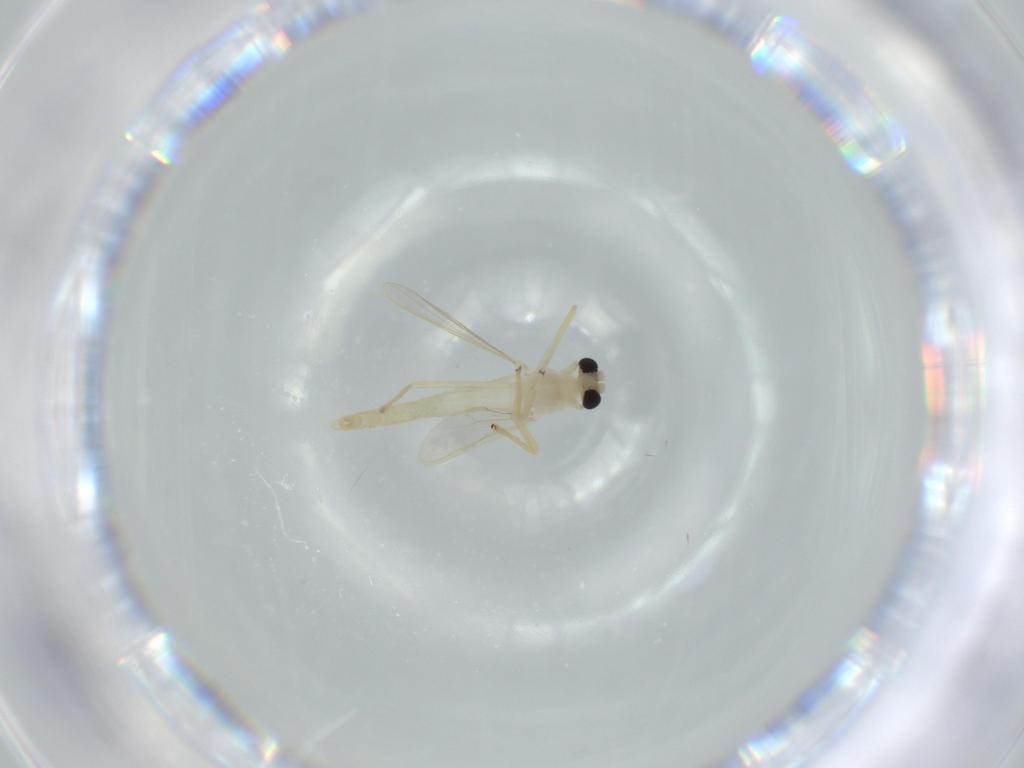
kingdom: Animalia
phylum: Arthropoda
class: Insecta
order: Diptera
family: Chironomidae
